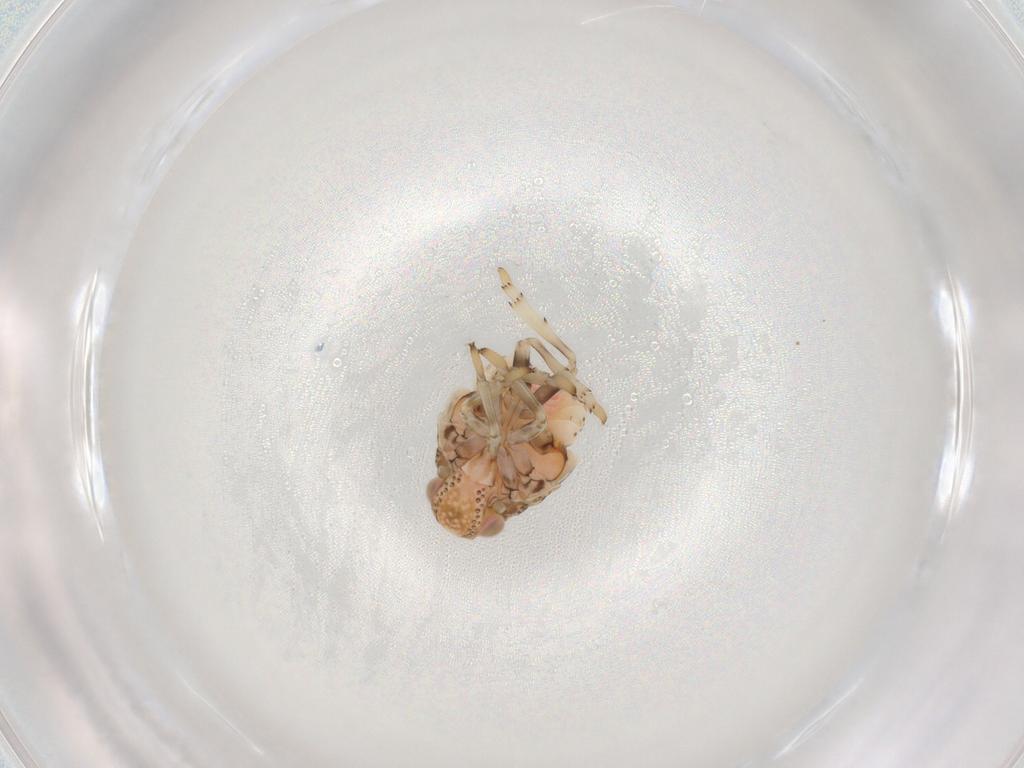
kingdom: Animalia
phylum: Arthropoda
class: Insecta
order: Hemiptera
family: Nogodinidae
